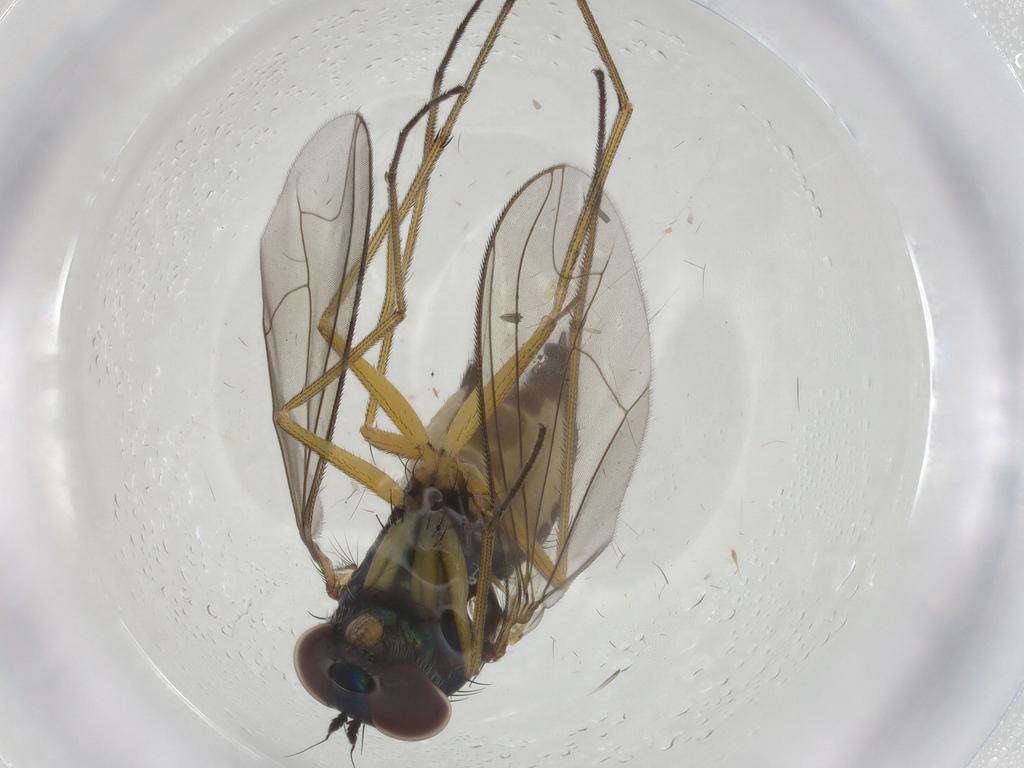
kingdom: Animalia
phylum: Arthropoda
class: Insecta
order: Diptera
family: Dolichopodidae
